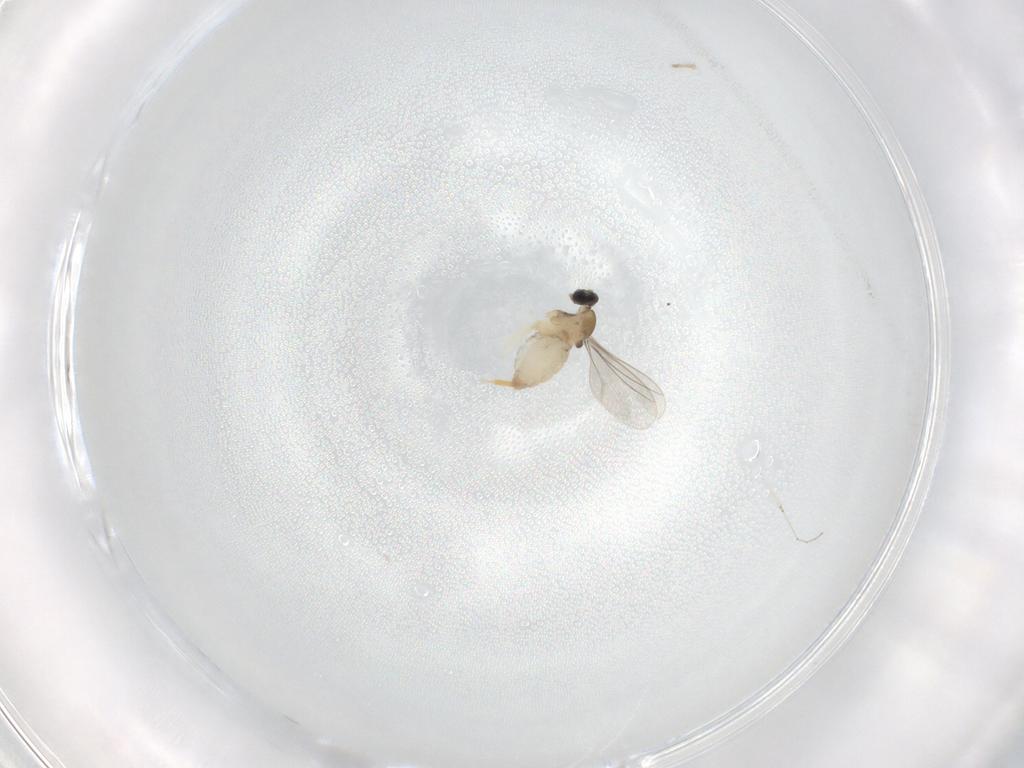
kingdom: Animalia
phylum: Arthropoda
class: Insecta
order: Diptera
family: Cecidomyiidae
